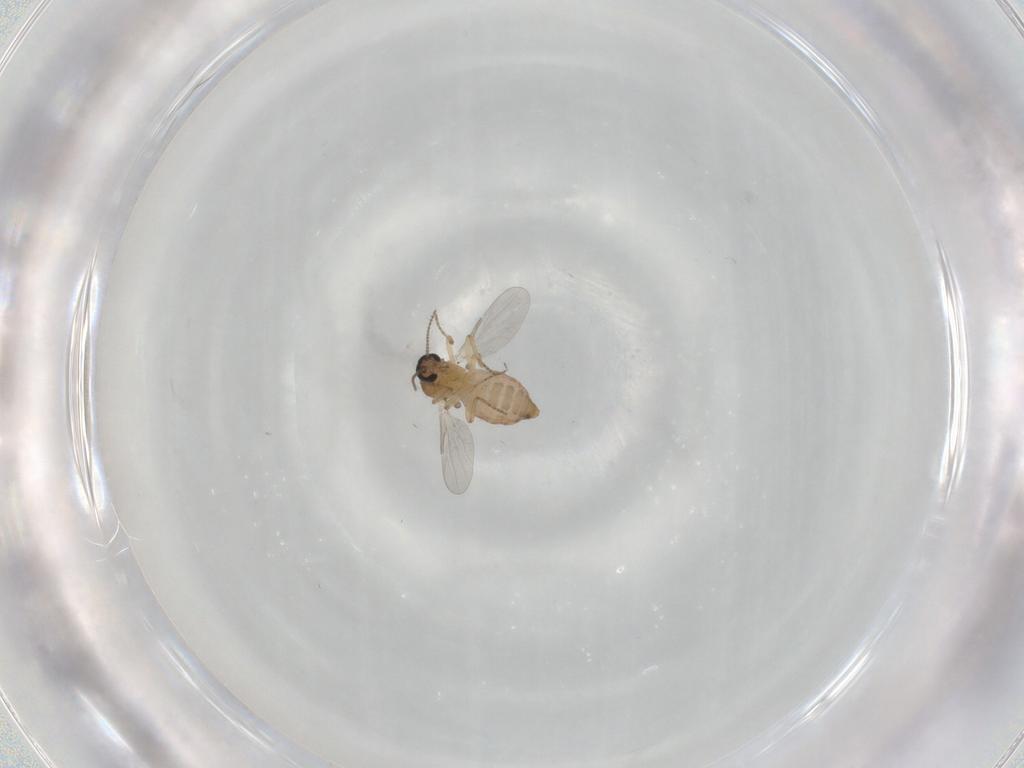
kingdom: Animalia
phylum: Arthropoda
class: Insecta
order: Diptera
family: Ceratopogonidae
